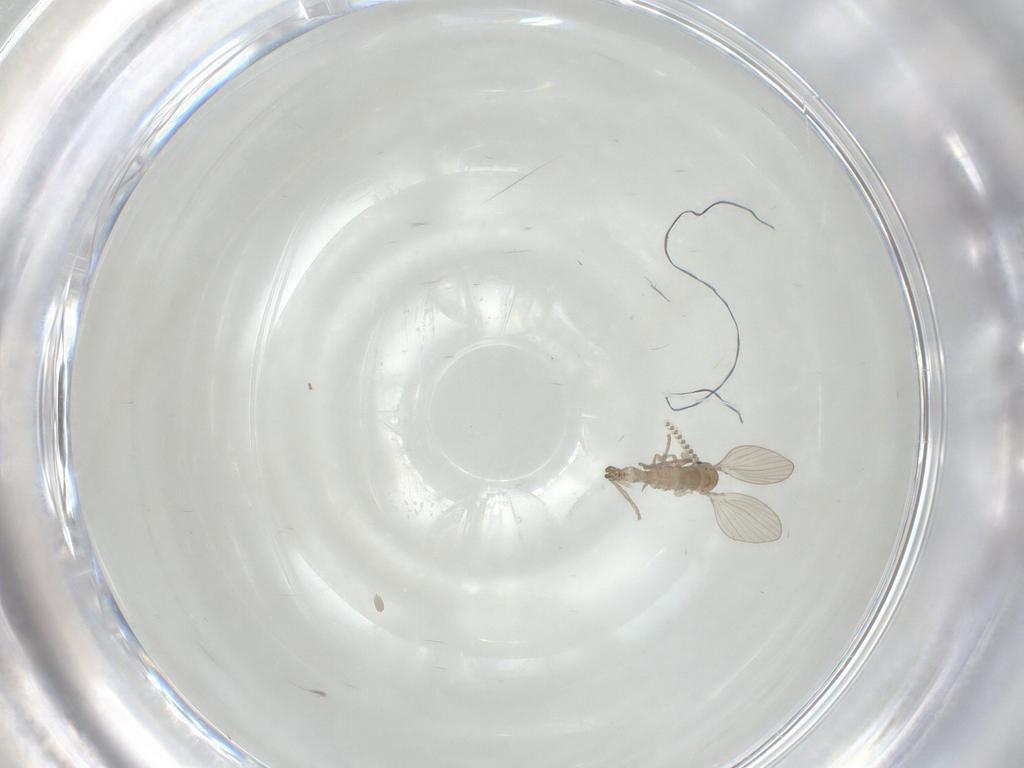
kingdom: Animalia
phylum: Arthropoda
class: Insecta
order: Diptera
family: Psychodidae
